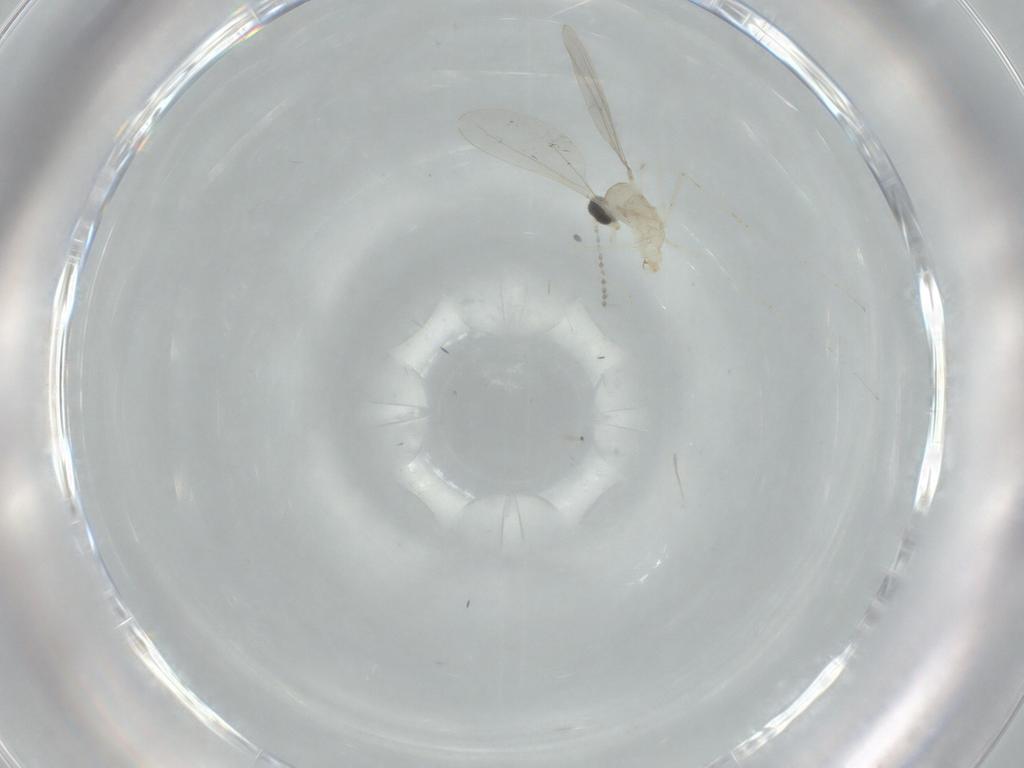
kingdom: Animalia
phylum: Arthropoda
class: Insecta
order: Diptera
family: Cecidomyiidae
